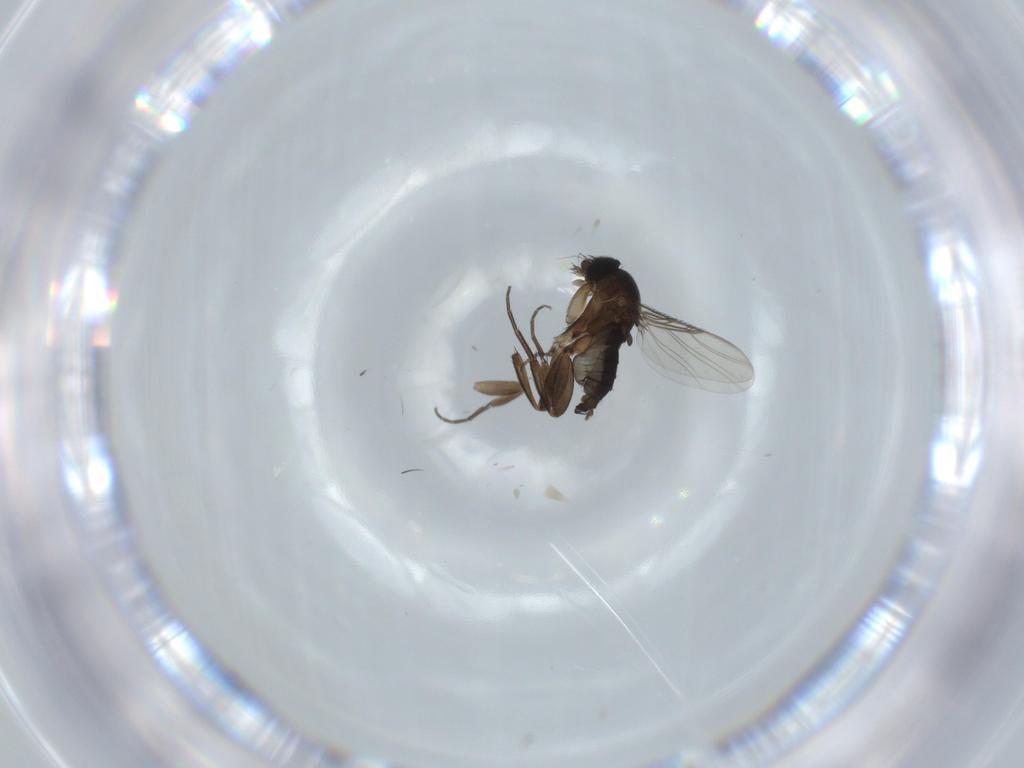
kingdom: Animalia
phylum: Arthropoda
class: Insecta
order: Diptera
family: Phoridae
